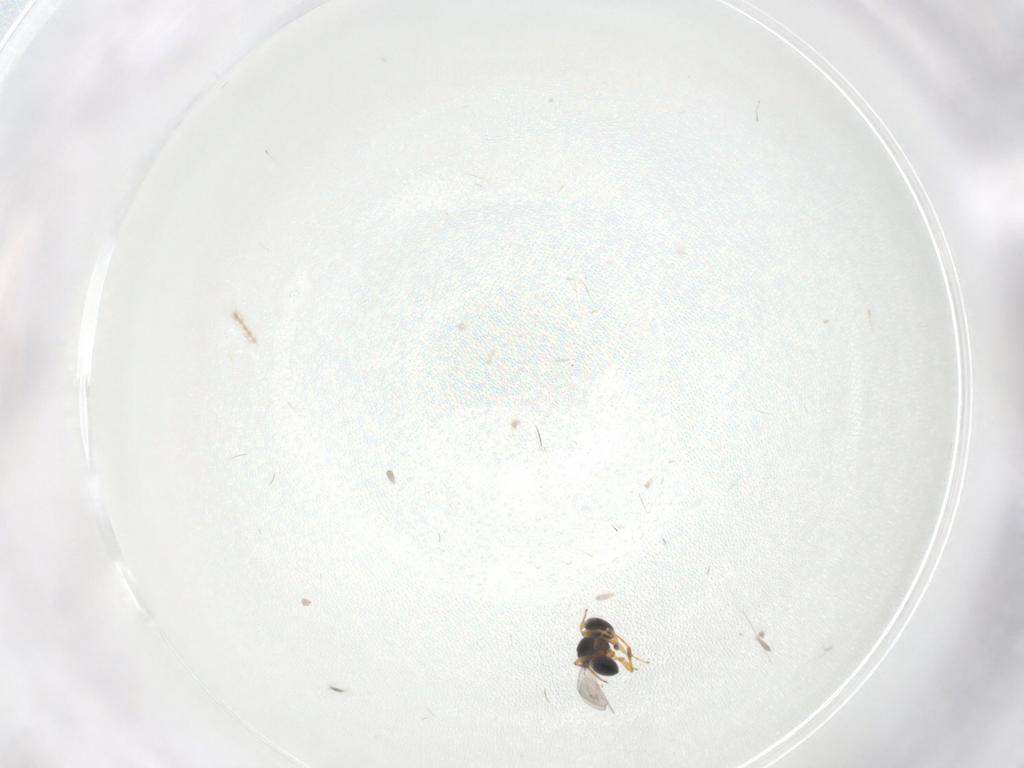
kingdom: Animalia
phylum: Arthropoda
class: Insecta
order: Hymenoptera
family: Platygastridae
